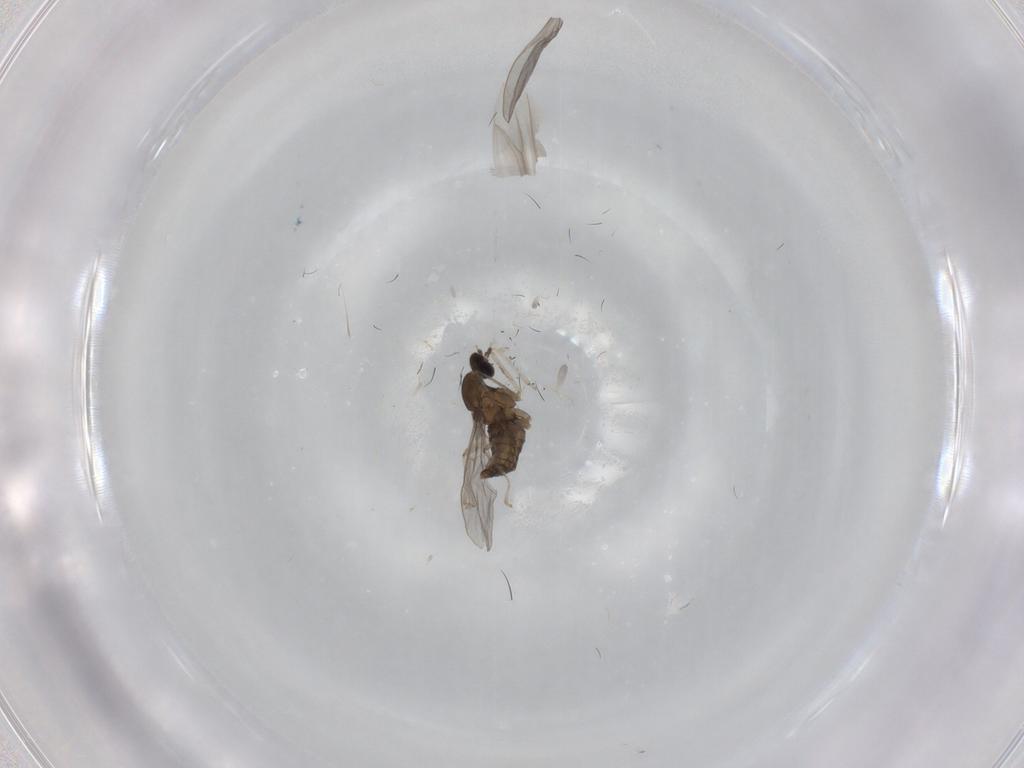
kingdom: Animalia
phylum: Arthropoda
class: Insecta
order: Diptera
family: Cecidomyiidae
